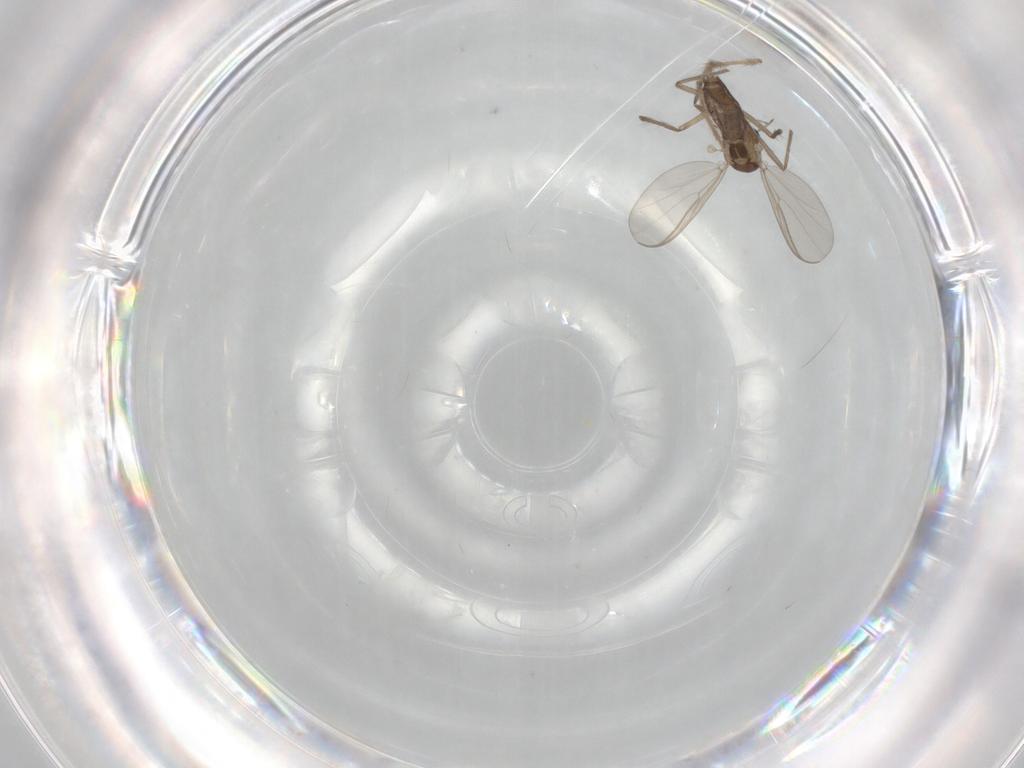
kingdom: Animalia
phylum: Arthropoda
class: Insecta
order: Diptera
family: Chironomidae
